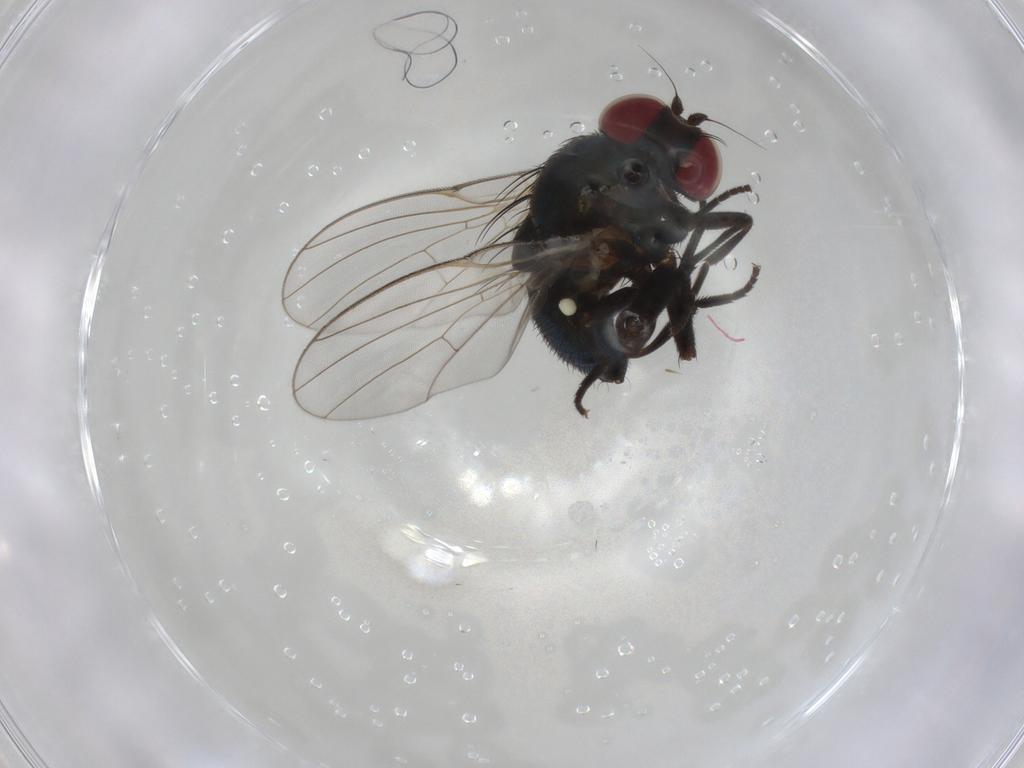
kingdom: Animalia
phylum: Arthropoda
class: Insecta
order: Diptera
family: Agromyzidae
